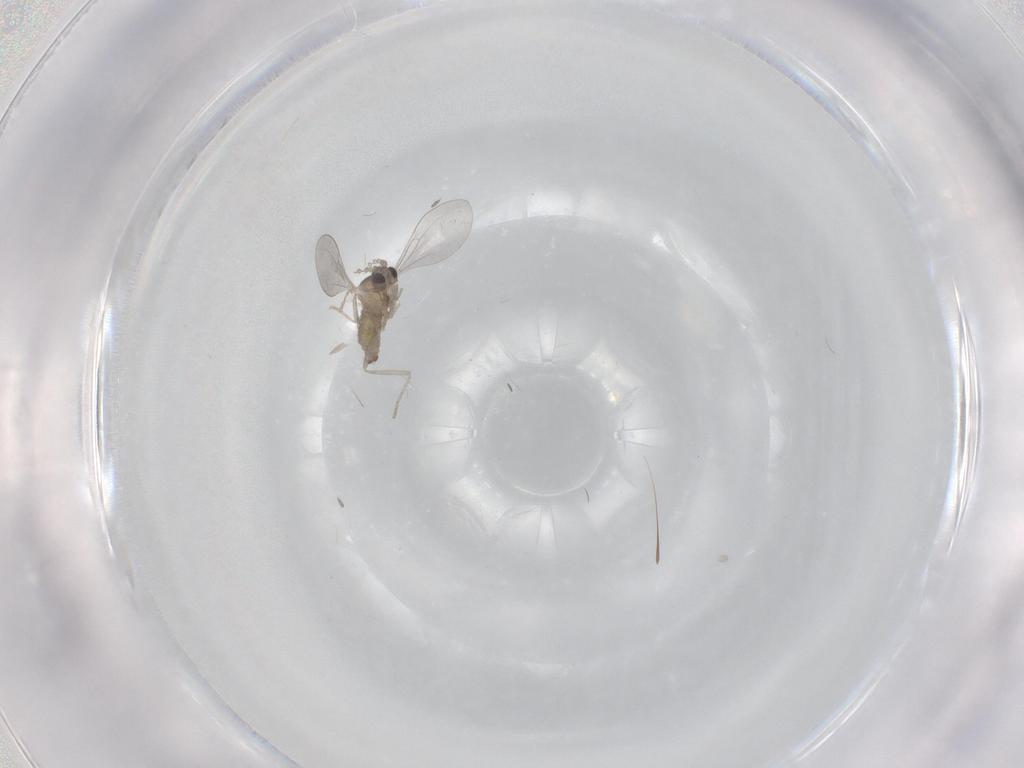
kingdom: Animalia
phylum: Arthropoda
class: Insecta
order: Diptera
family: Cecidomyiidae
